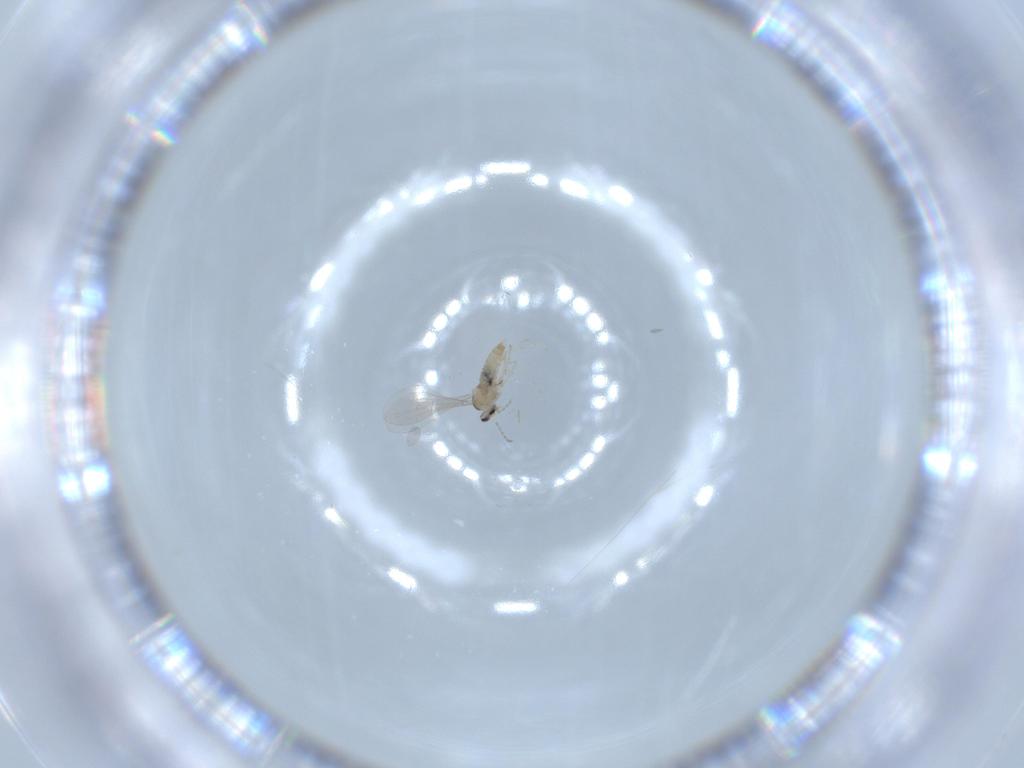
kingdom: Animalia
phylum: Arthropoda
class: Insecta
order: Diptera
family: Cecidomyiidae
